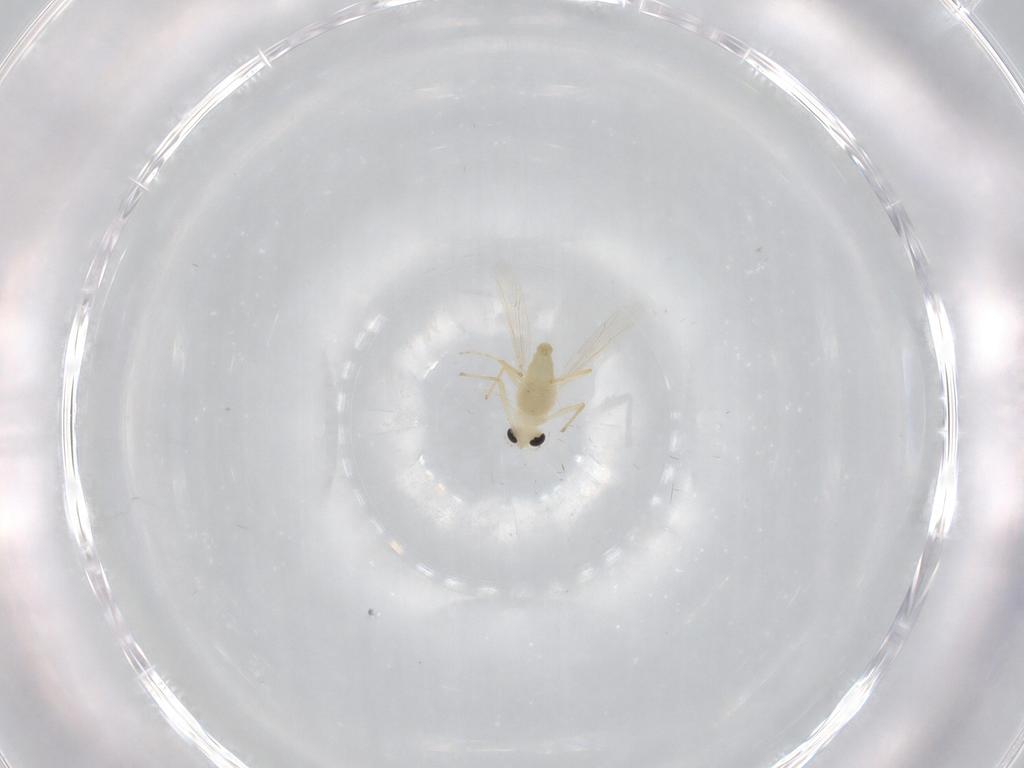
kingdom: Animalia
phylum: Arthropoda
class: Insecta
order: Diptera
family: Chironomidae
